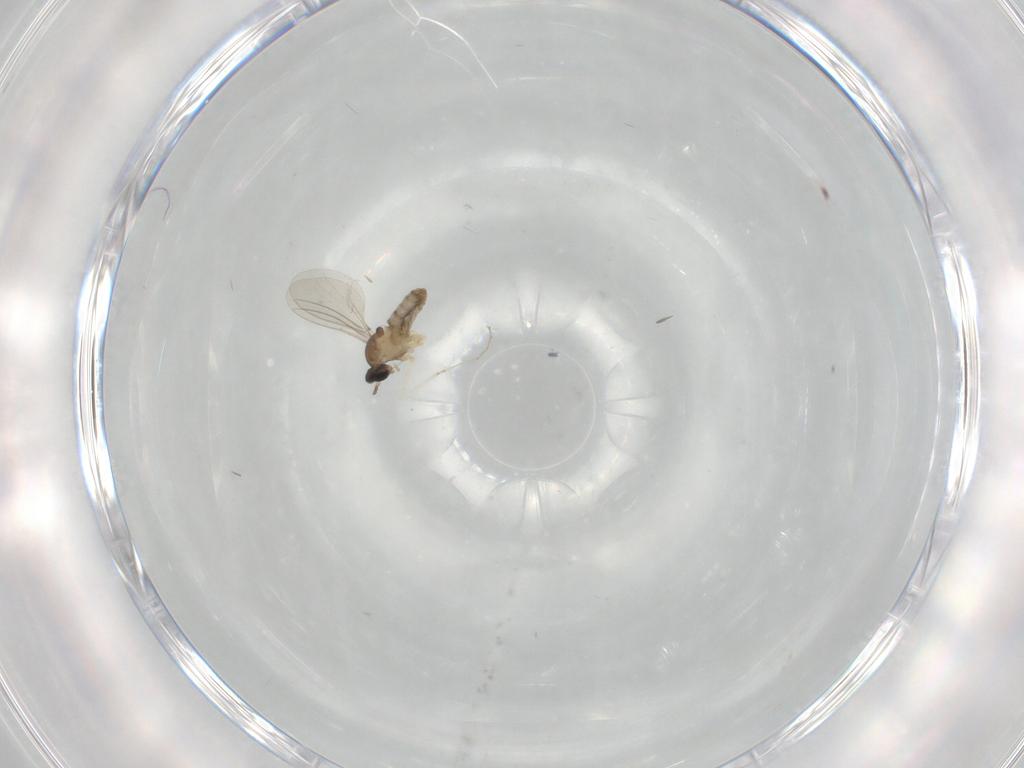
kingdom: Animalia
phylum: Arthropoda
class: Insecta
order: Diptera
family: Cecidomyiidae
